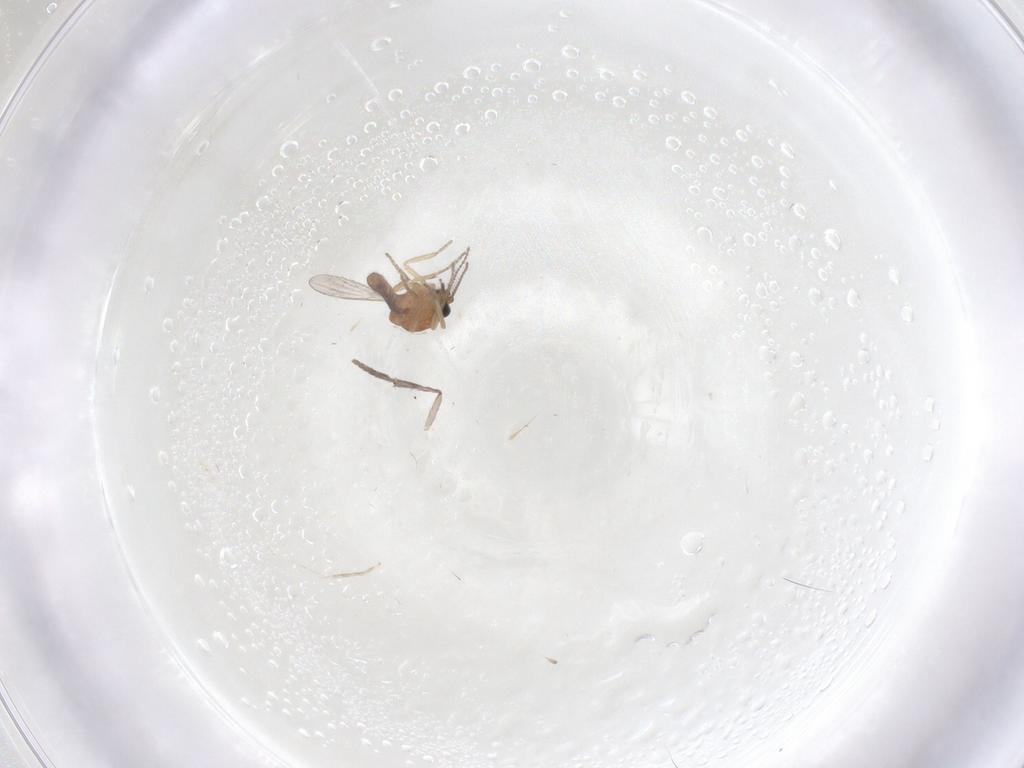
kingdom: Animalia
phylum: Arthropoda
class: Insecta
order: Diptera
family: Ceratopogonidae
